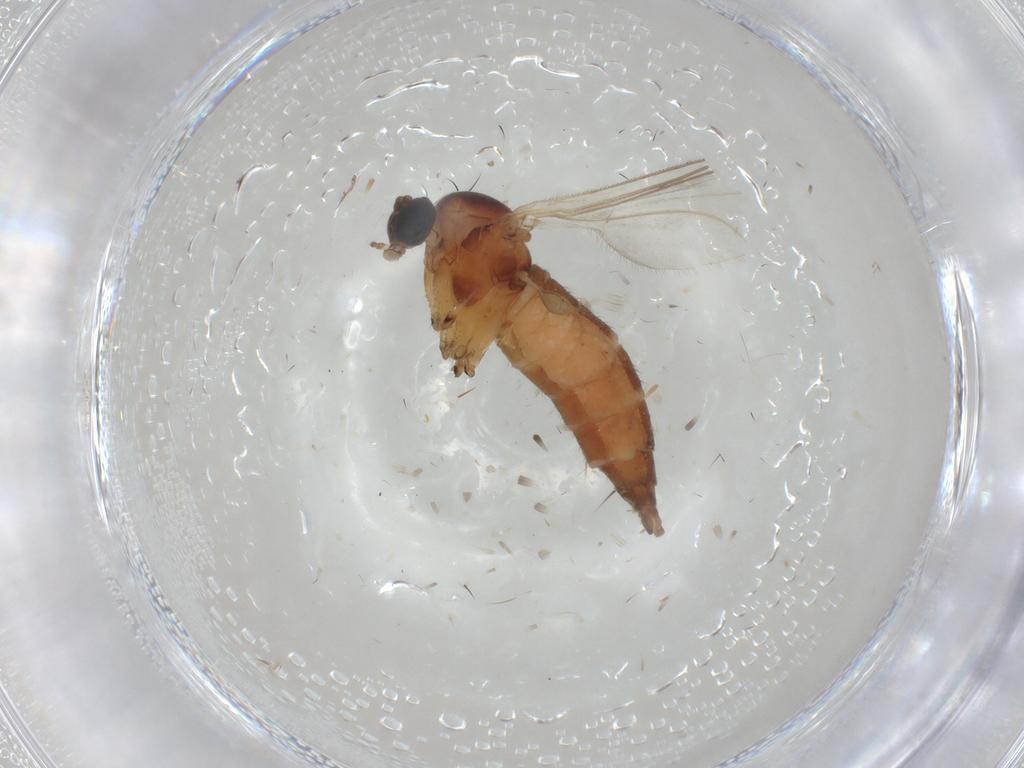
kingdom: Animalia
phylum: Arthropoda
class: Insecta
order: Diptera
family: Sciaridae
